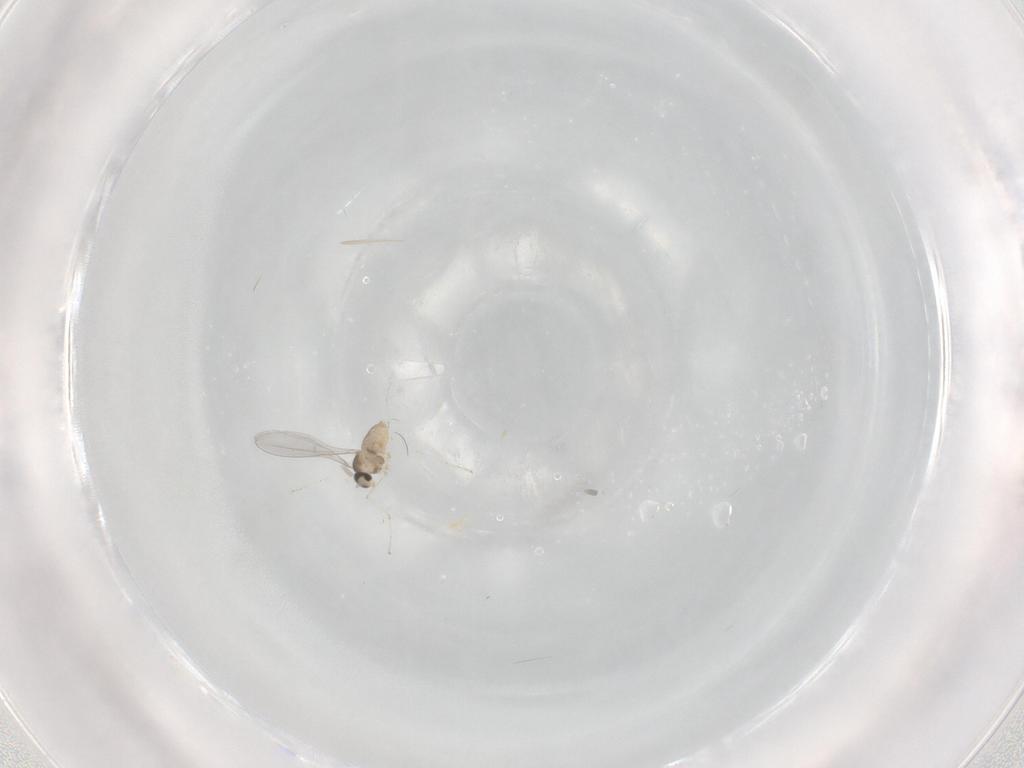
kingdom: Animalia
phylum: Arthropoda
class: Insecta
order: Diptera
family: Cecidomyiidae
